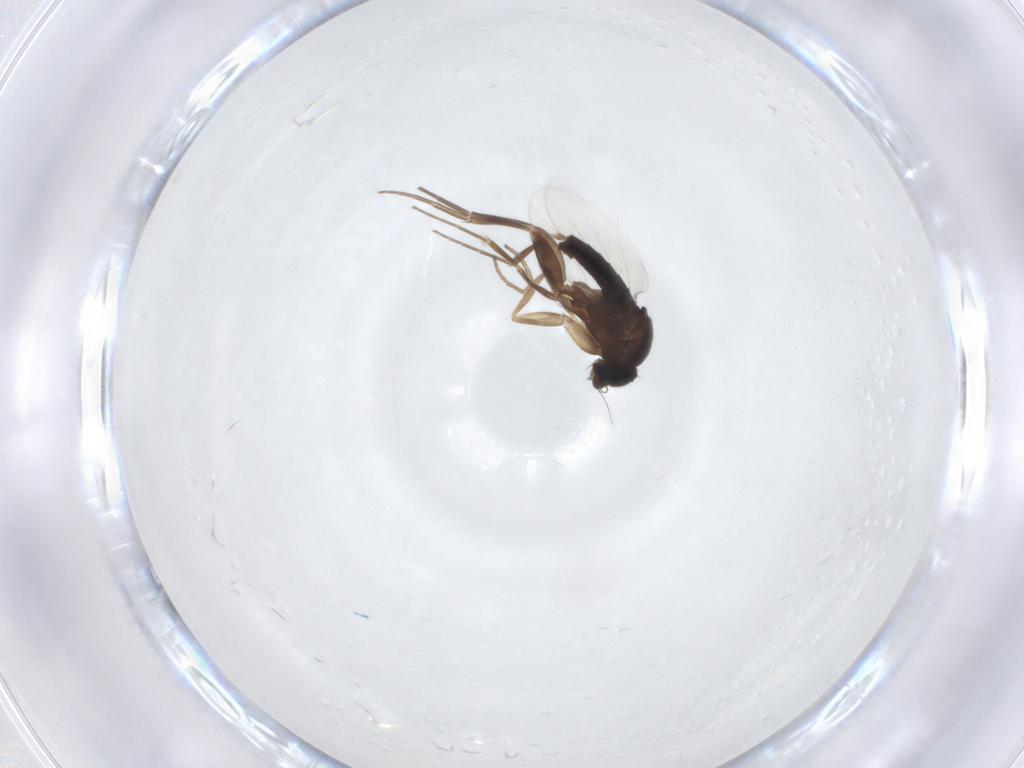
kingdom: Animalia
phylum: Arthropoda
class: Insecta
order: Diptera
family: Phoridae
